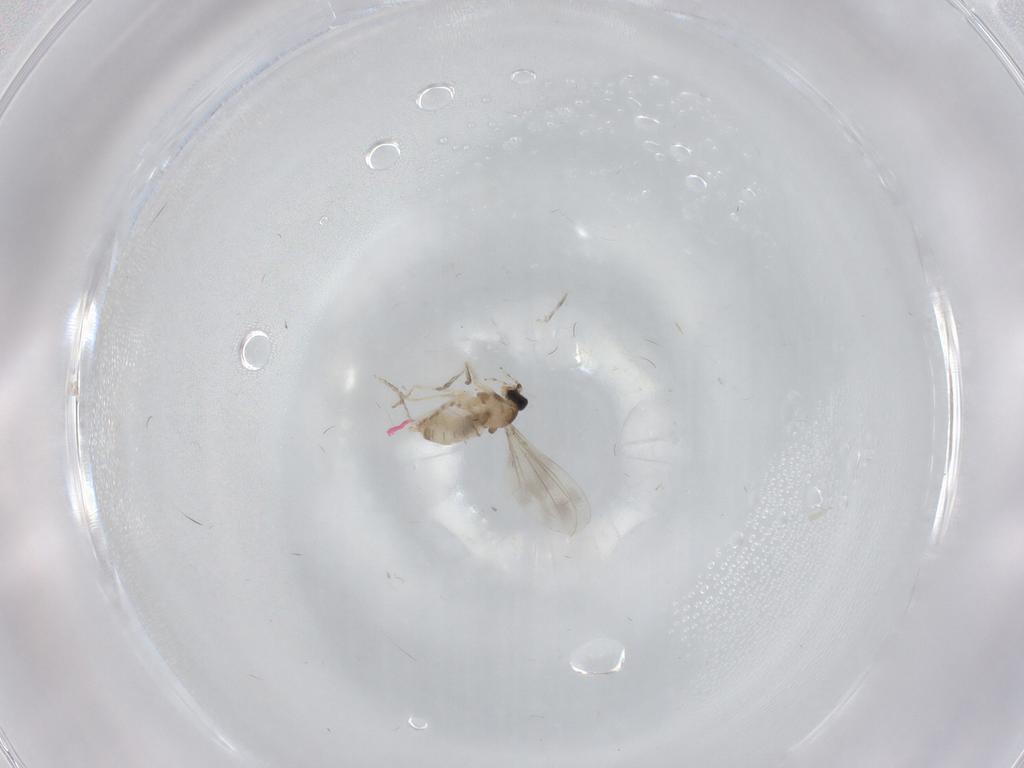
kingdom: Animalia
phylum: Arthropoda
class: Insecta
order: Diptera
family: Cecidomyiidae
